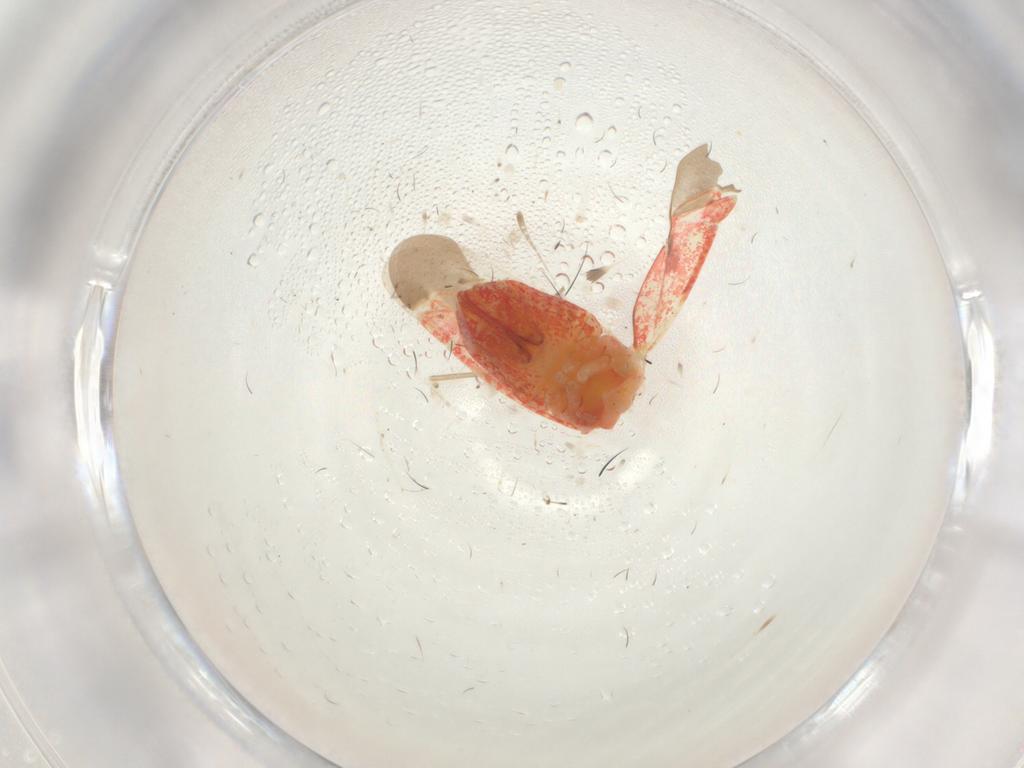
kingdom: Animalia
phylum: Arthropoda
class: Insecta
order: Hemiptera
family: Miridae
